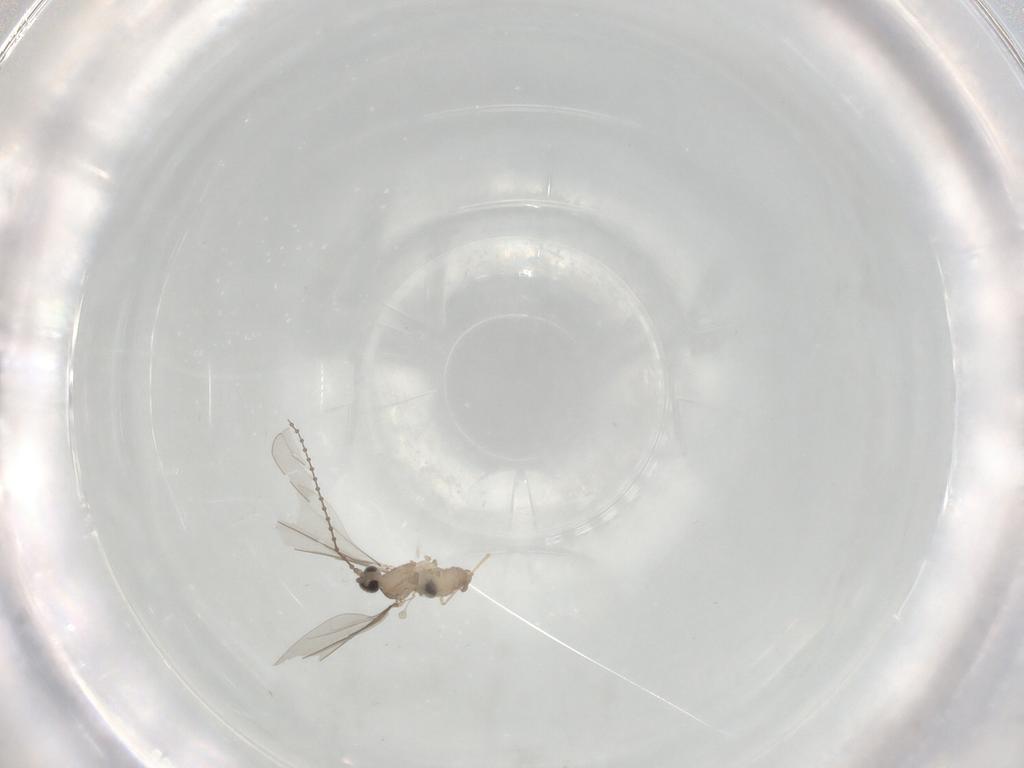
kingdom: Animalia
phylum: Arthropoda
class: Insecta
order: Diptera
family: Cecidomyiidae
